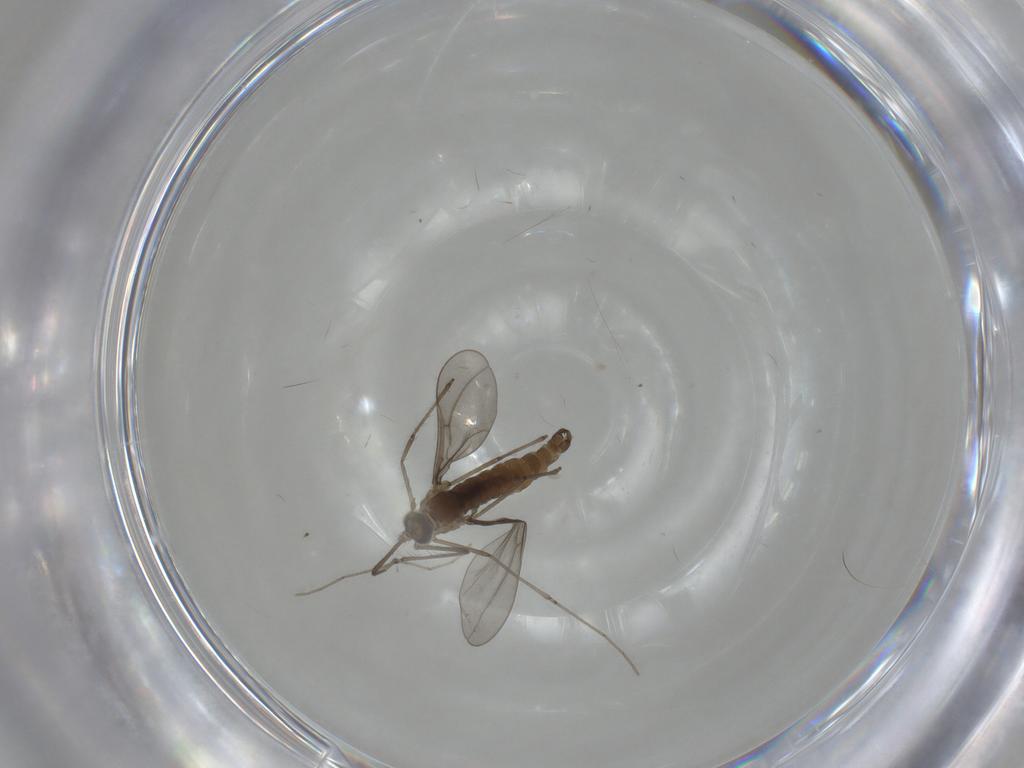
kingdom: Animalia
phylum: Arthropoda
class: Insecta
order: Diptera
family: Cecidomyiidae
